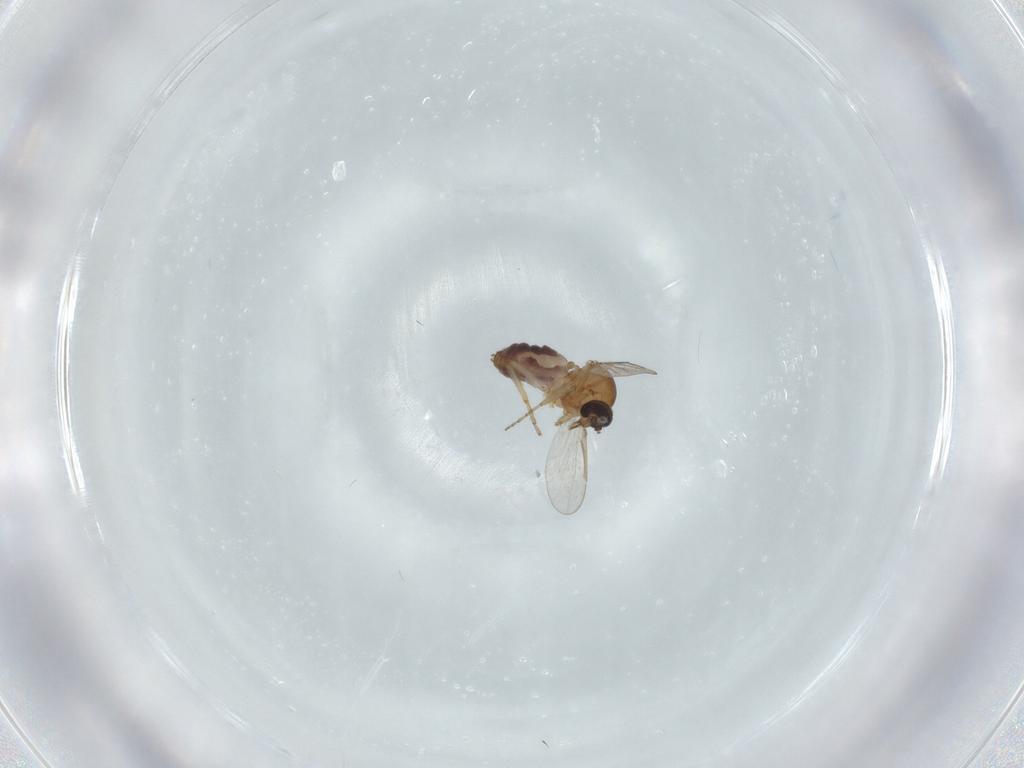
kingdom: Animalia
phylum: Arthropoda
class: Insecta
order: Diptera
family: Ceratopogonidae
